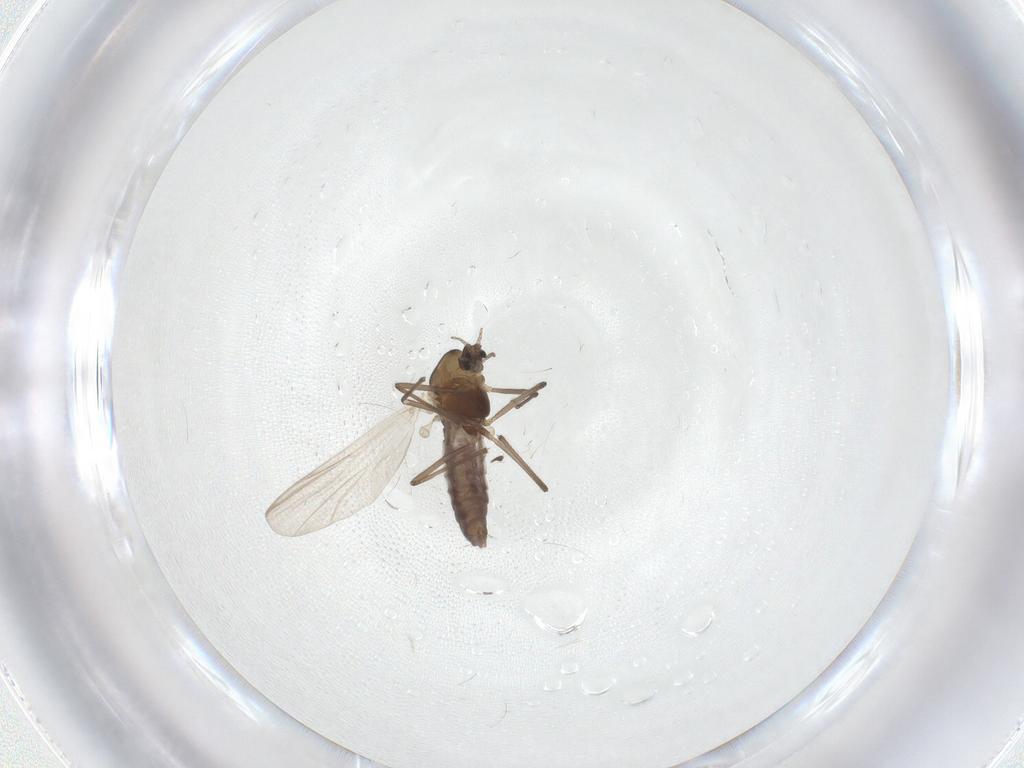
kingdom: Animalia
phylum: Arthropoda
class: Insecta
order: Diptera
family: Chironomidae
